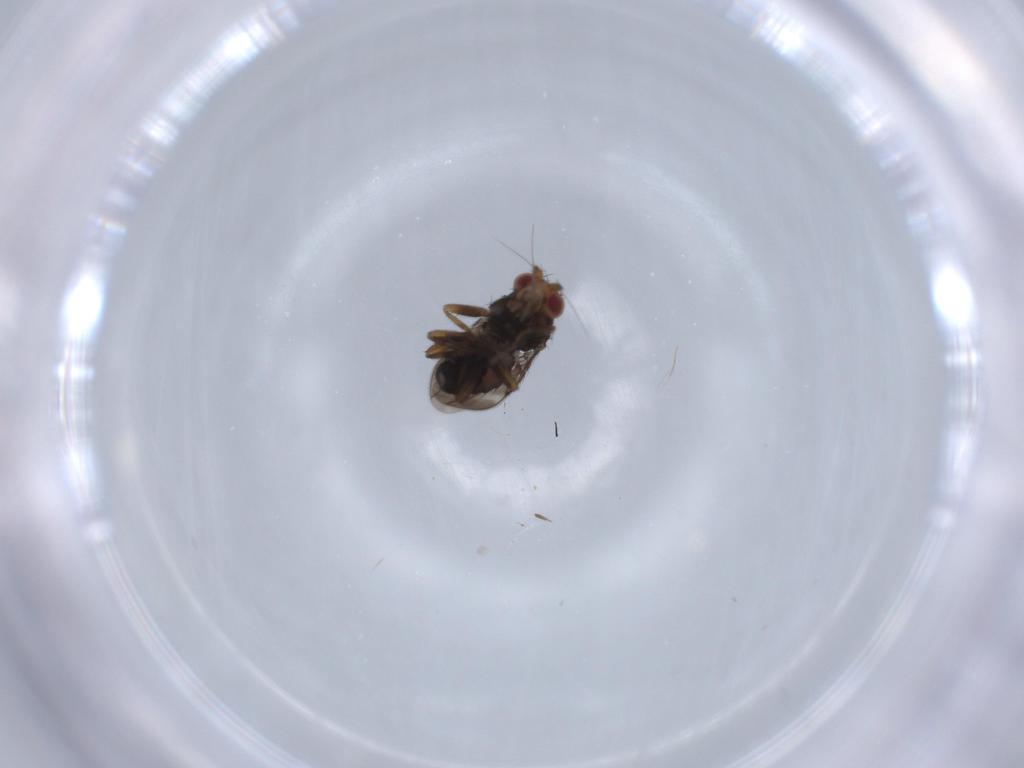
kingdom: Animalia
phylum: Arthropoda
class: Insecta
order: Diptera
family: Sphaeroceridae
